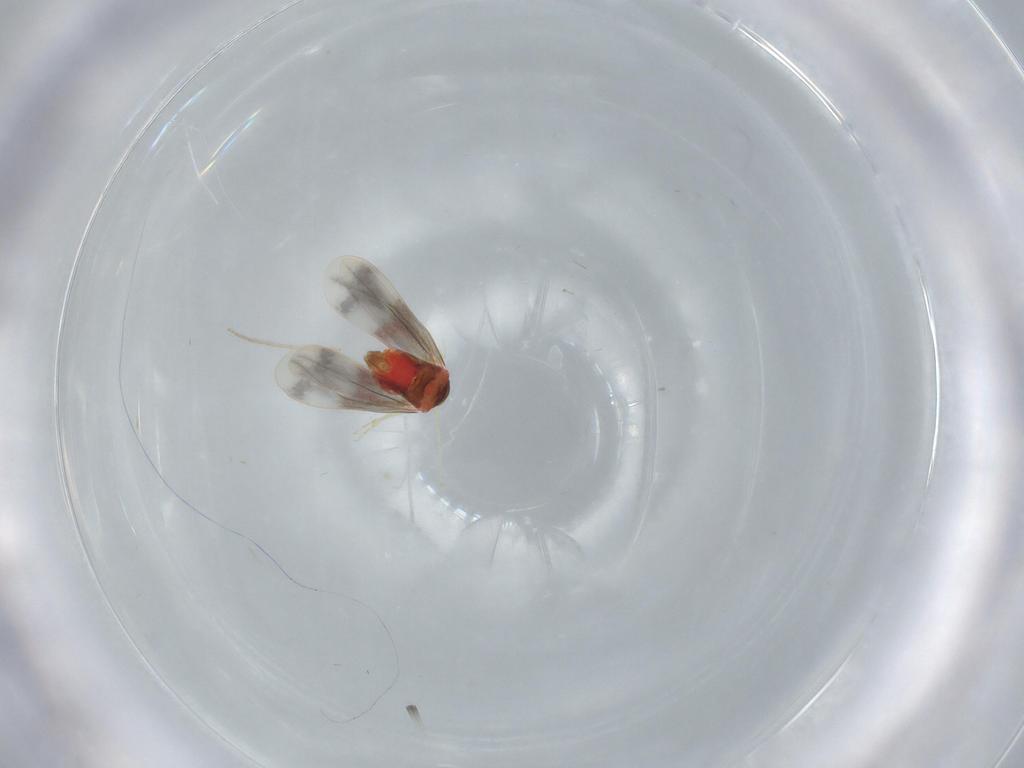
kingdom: Animalia
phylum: Arthropoda
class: Insecta
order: Hemiptera
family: Aleyrodidae
